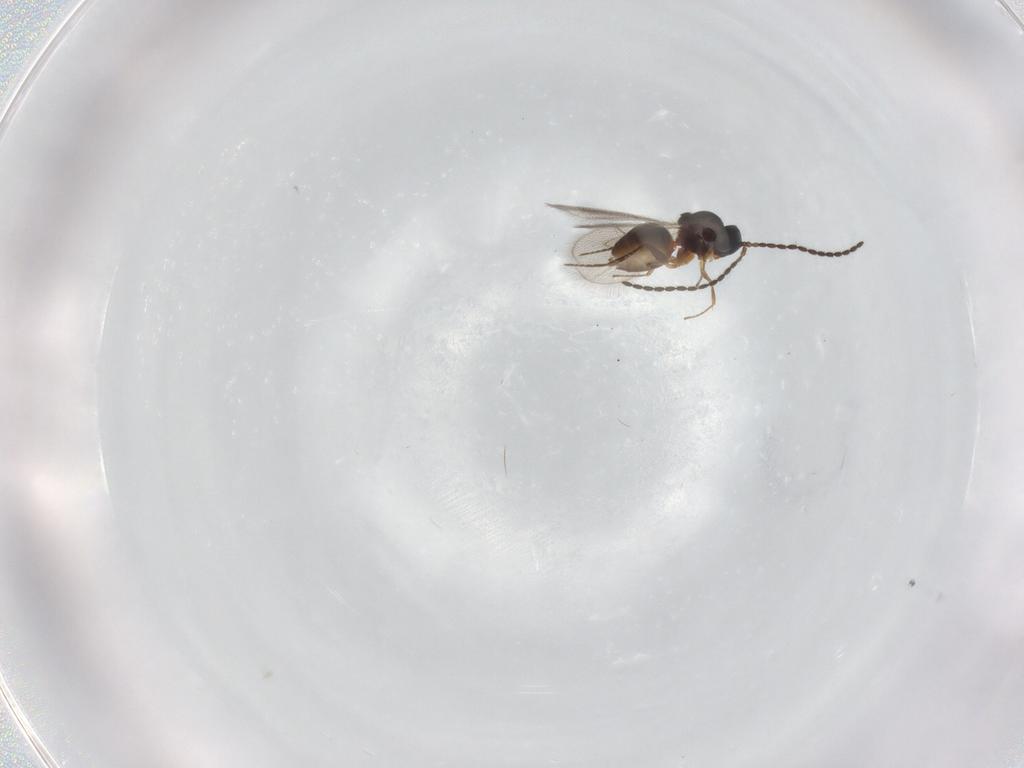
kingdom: Animalia
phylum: Arthropoda
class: Insecta
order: Hymenoptera
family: Figitidae
